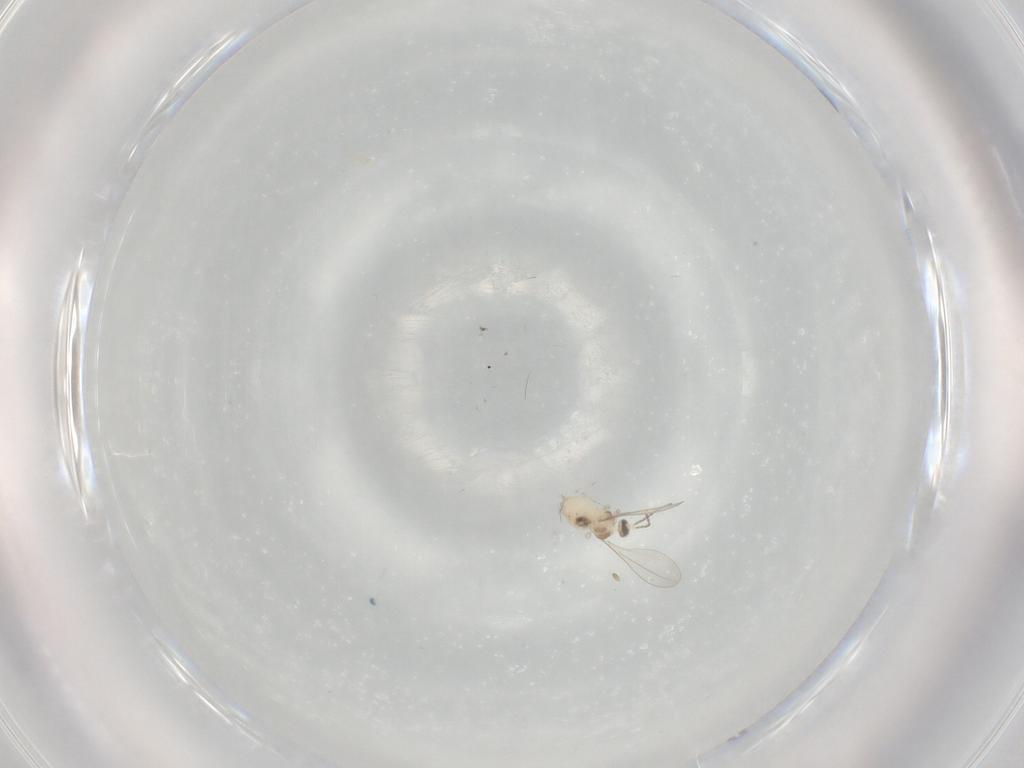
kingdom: Animalia
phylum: Arthropoda
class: Insecta
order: Diptera
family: Cecidomyiidae
